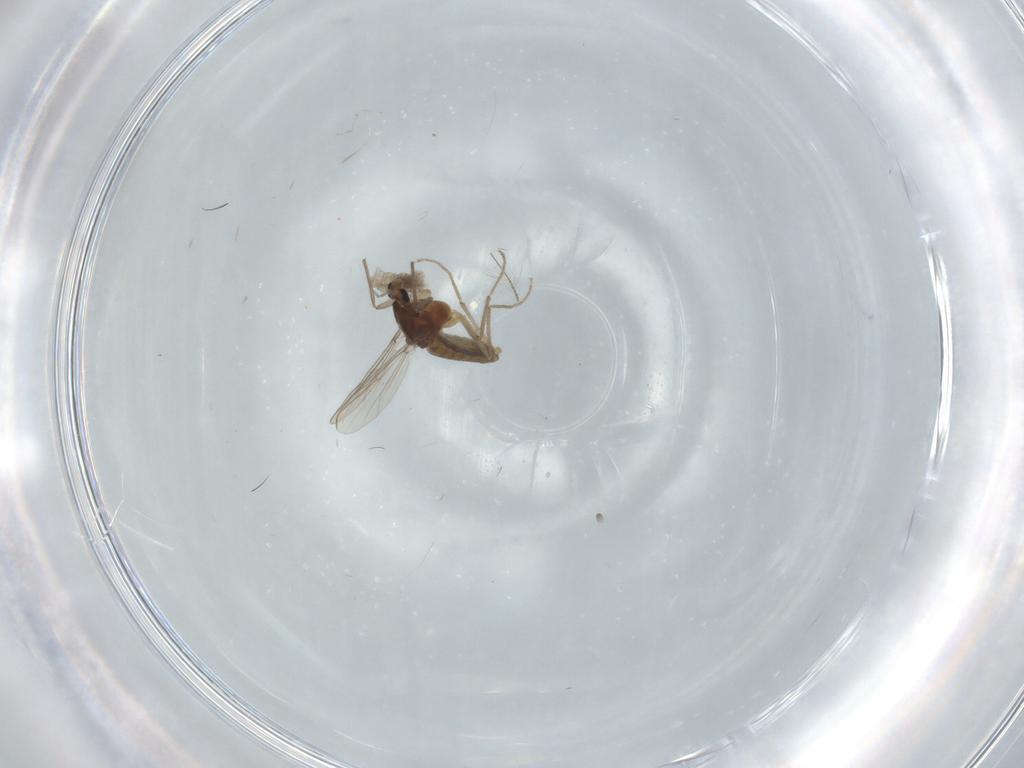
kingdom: Animalia
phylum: Arthropoda
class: Insecta
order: Diptera
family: Chironomidae
